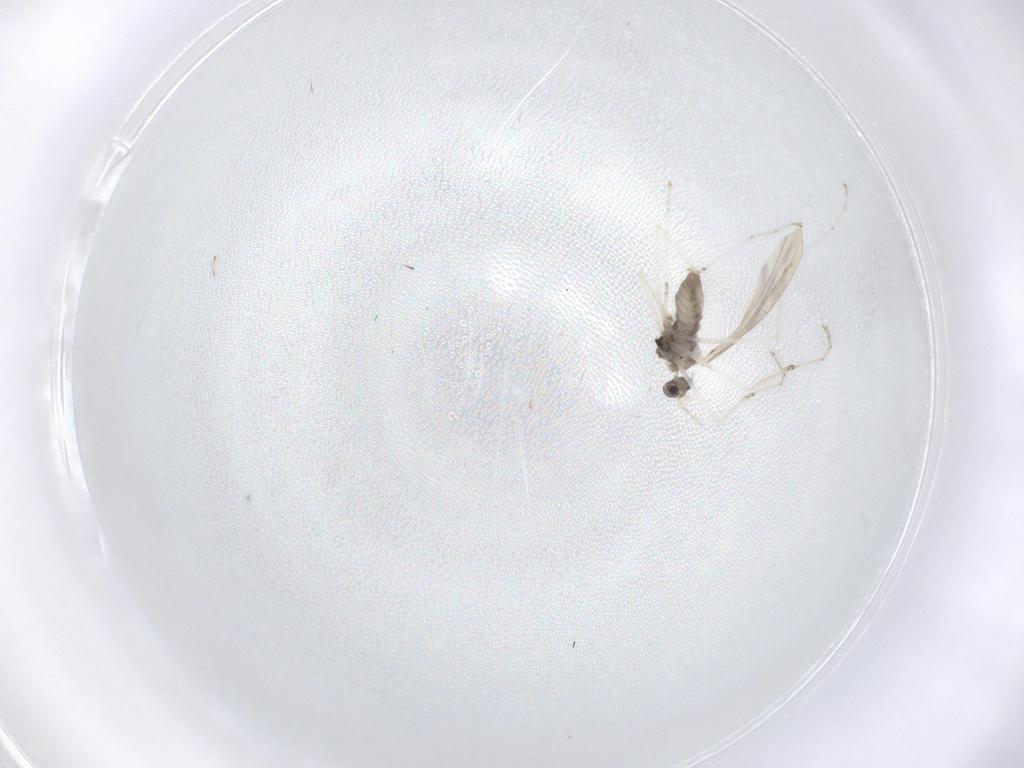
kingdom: Animalia
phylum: Arthropoda
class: Insecta
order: Diptera
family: Cecidomyiidae
